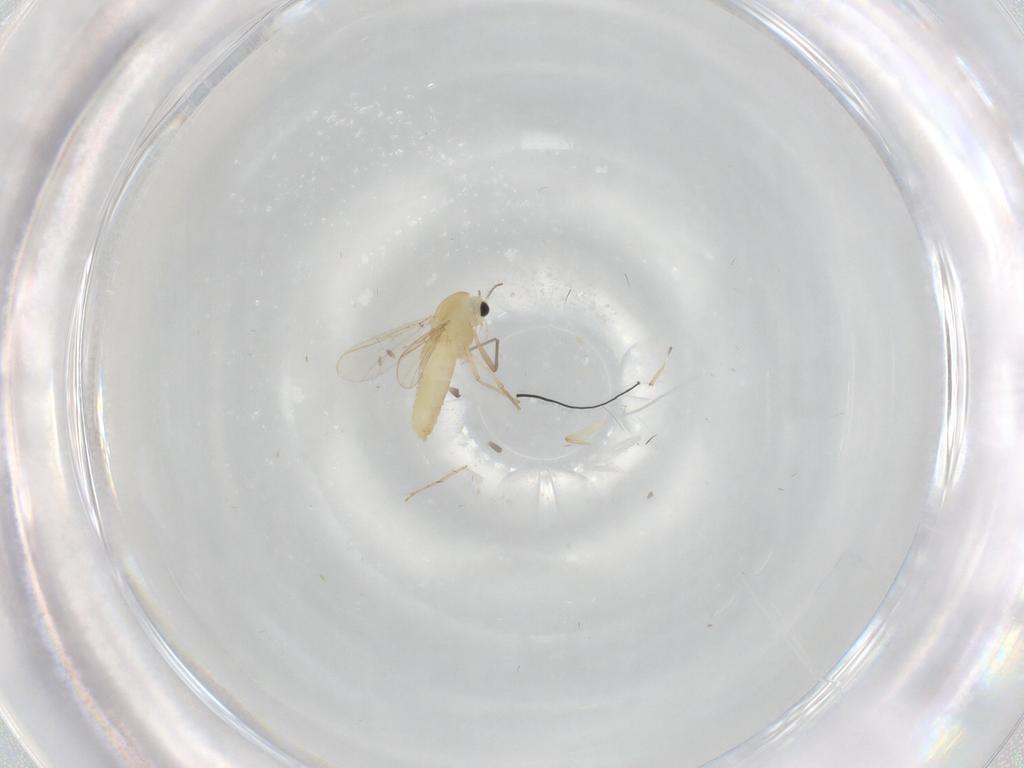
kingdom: Animalia
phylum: Arthropoda
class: Insecta
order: Diptera
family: Chironomidae
